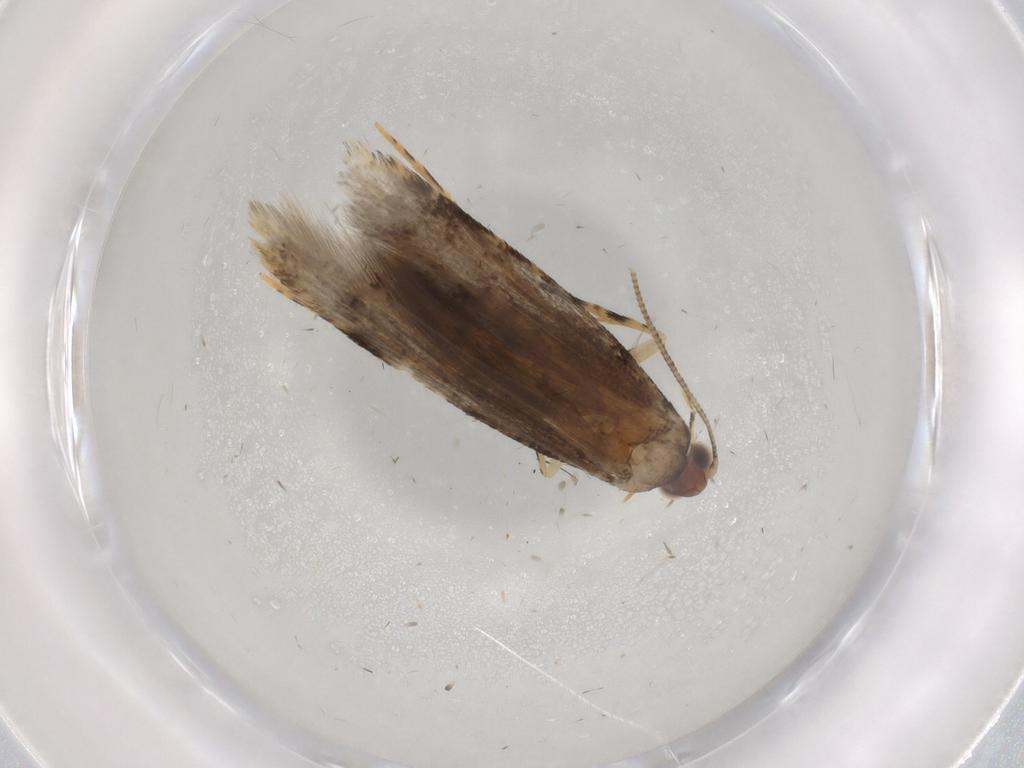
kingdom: Animalia
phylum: Arthropoda
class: Insecta
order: Lepidoptera
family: Tineidae
